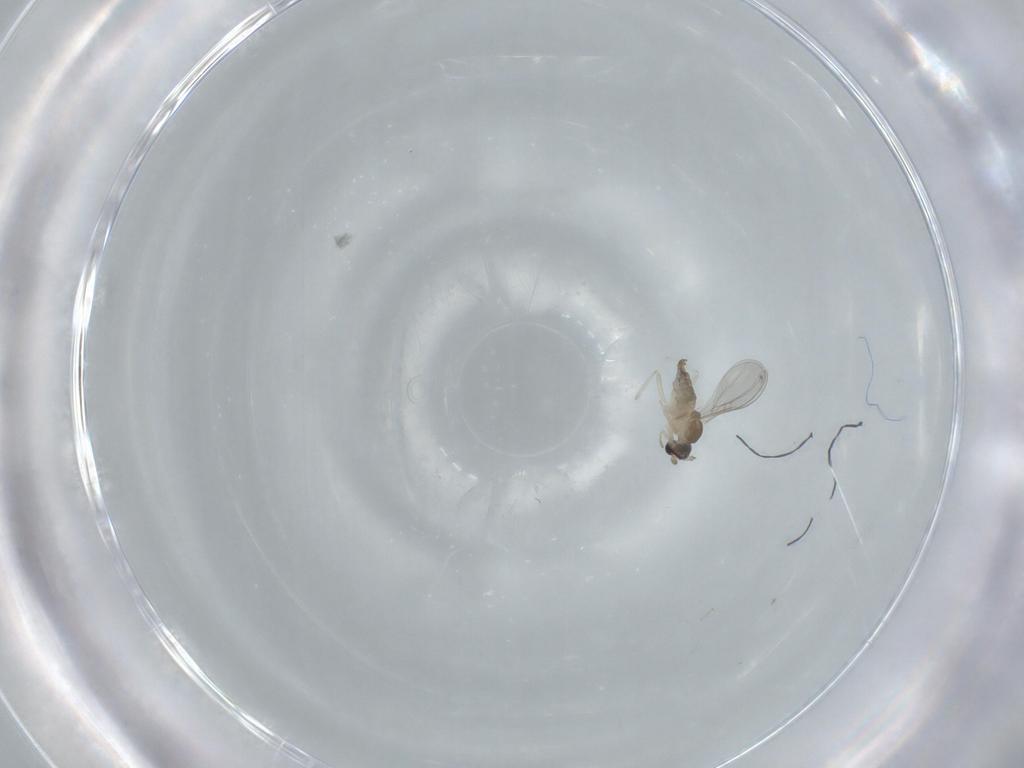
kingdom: Animalia
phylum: Arthropoda
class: Insecta
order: Diptera
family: Cecidomyiidae
